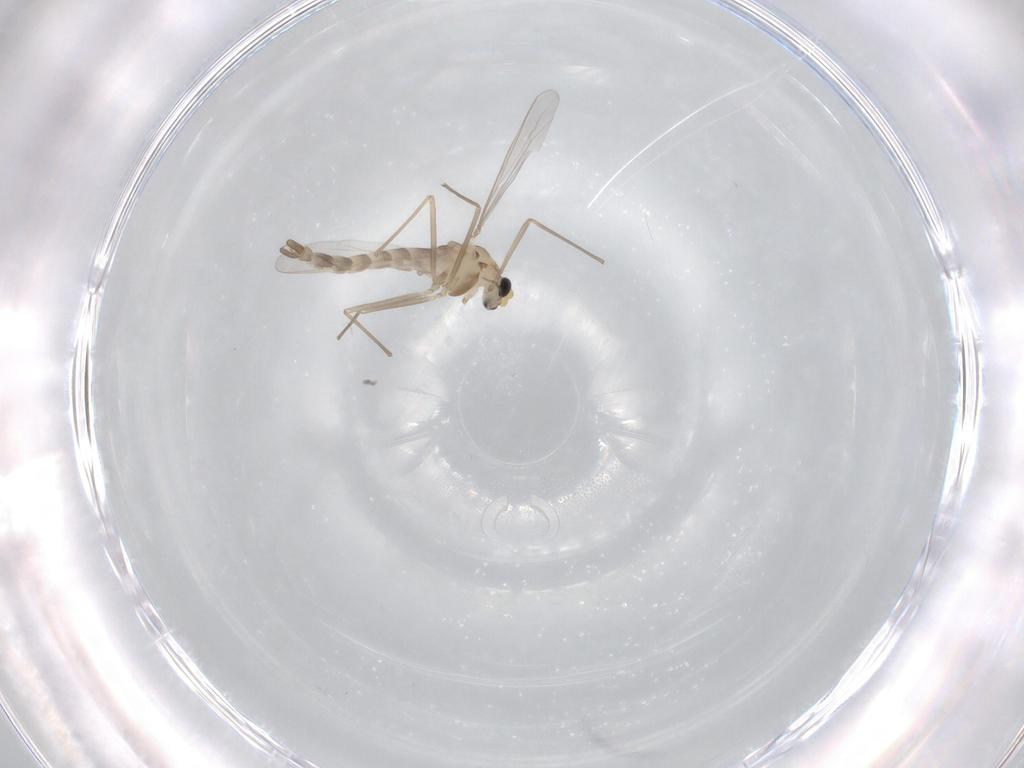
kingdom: Animalia
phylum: Arthropoda
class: Insecta
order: Diptera
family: Chironomidae
